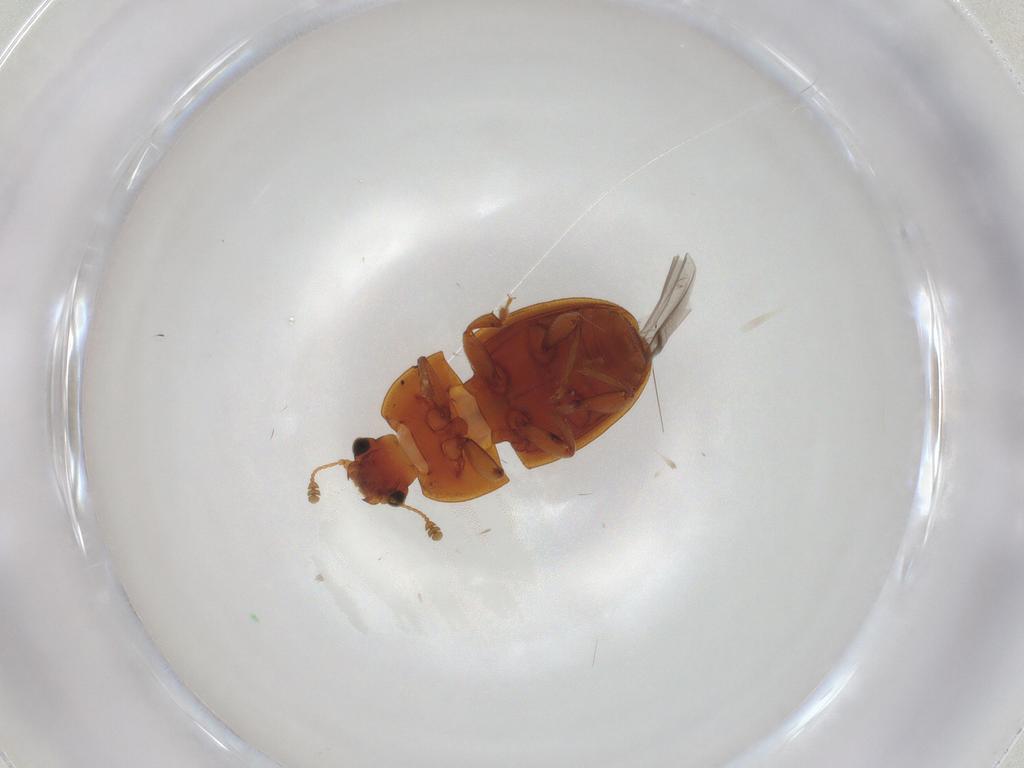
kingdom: Animalia
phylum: Arthropoda
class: Insecta
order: Coleoptera
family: Nitidulidae
